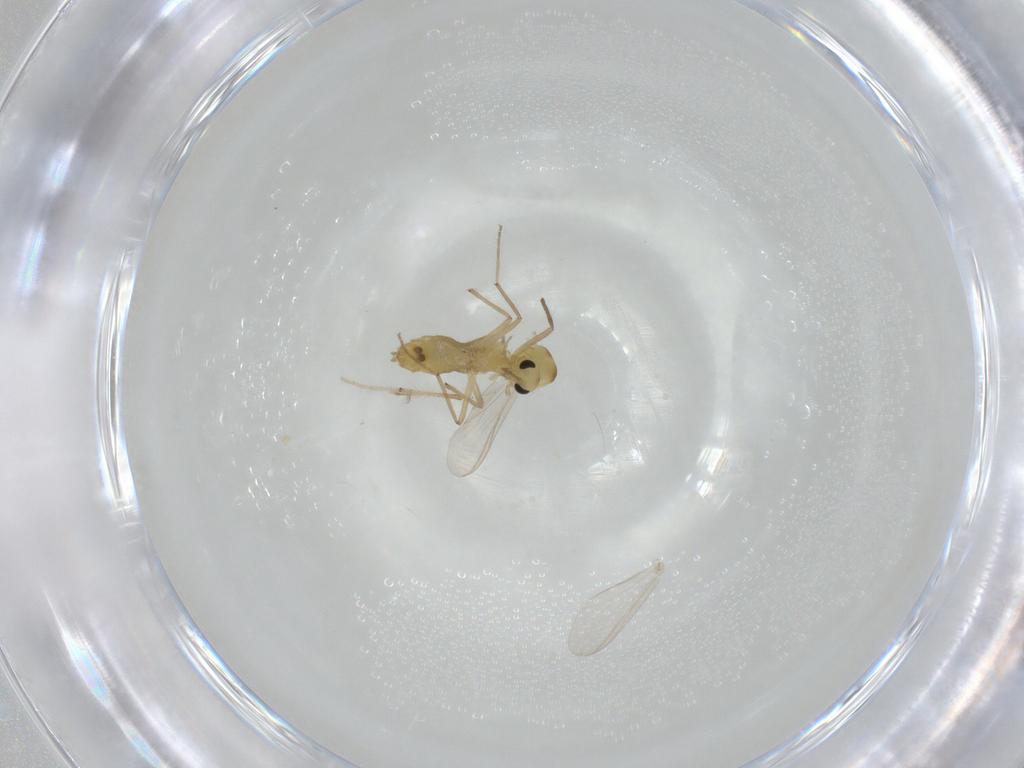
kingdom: Animalia
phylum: Arthropoda
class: Insecta
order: Diptera
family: Chironomidae
